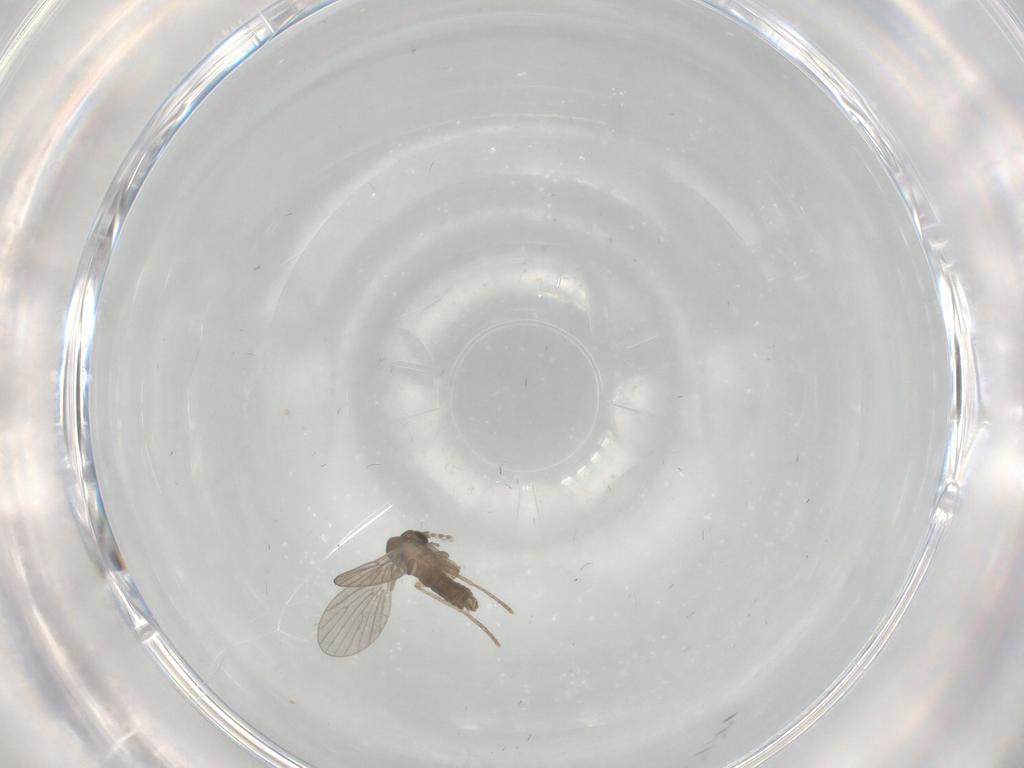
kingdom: Animalia
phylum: Arthropoda
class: Insecta
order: Diptera
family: Psychodidae
